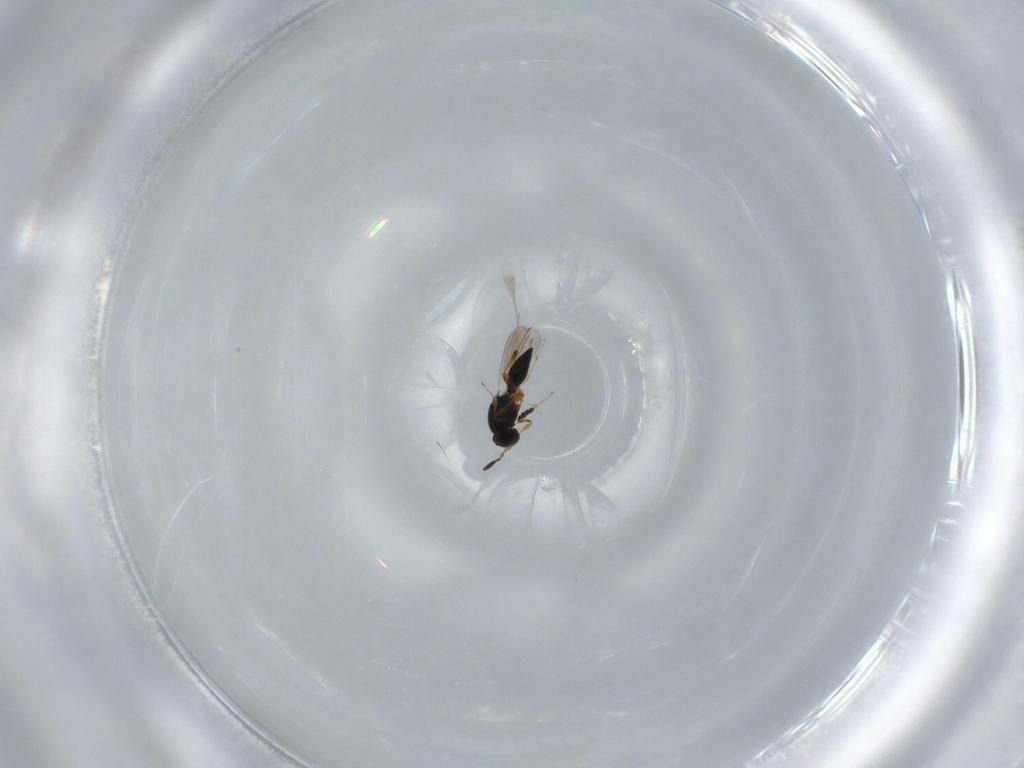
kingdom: Animalia
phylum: Arthropoda
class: Insecta
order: Hymenoptera
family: Platygastridae
